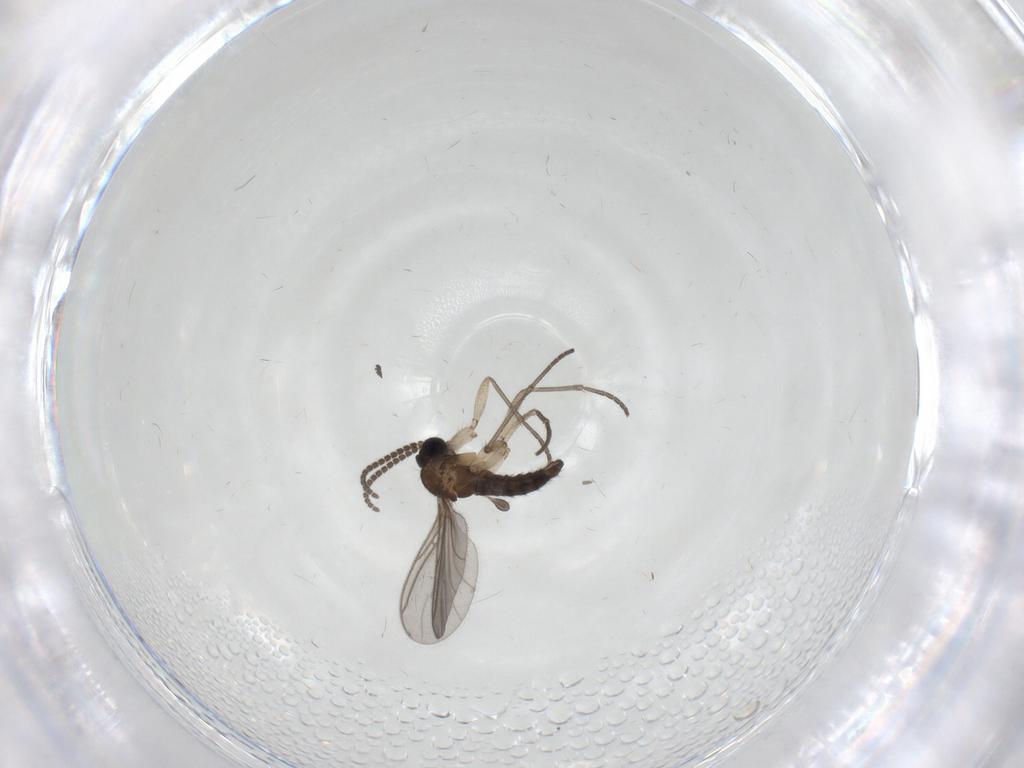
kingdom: Animalia
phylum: Arthropoda
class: Insecta
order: Diptera
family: Sciaridae
